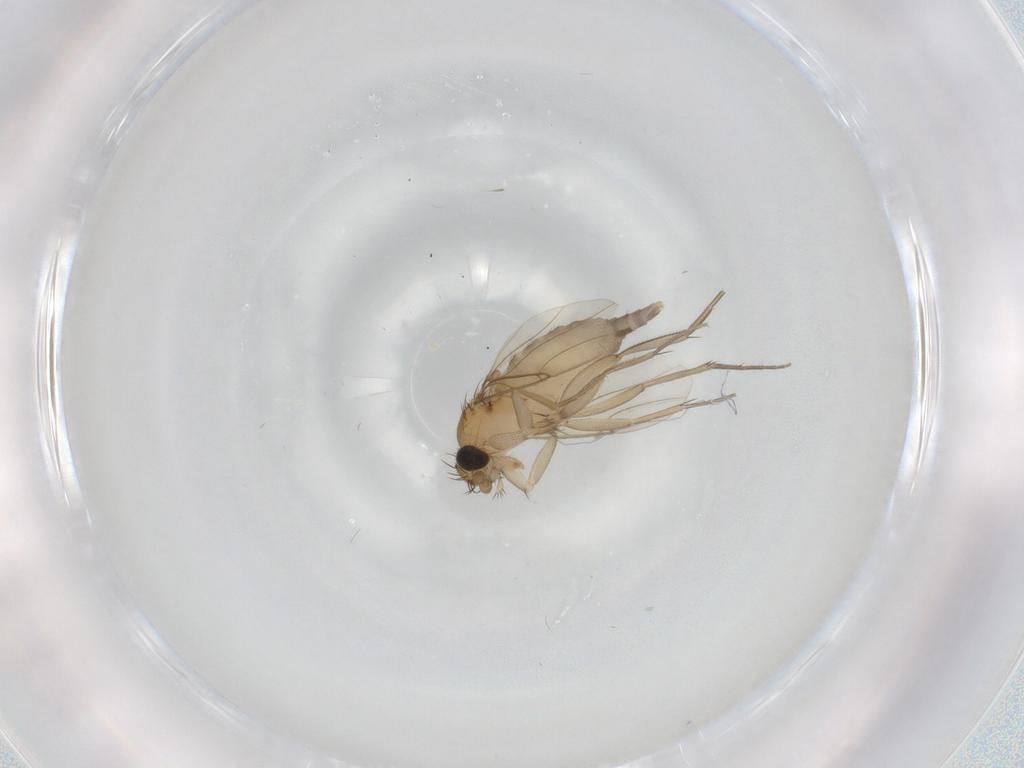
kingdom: Animalia
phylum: Arthropoda
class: Insecta
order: Diptera
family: Phoridae
